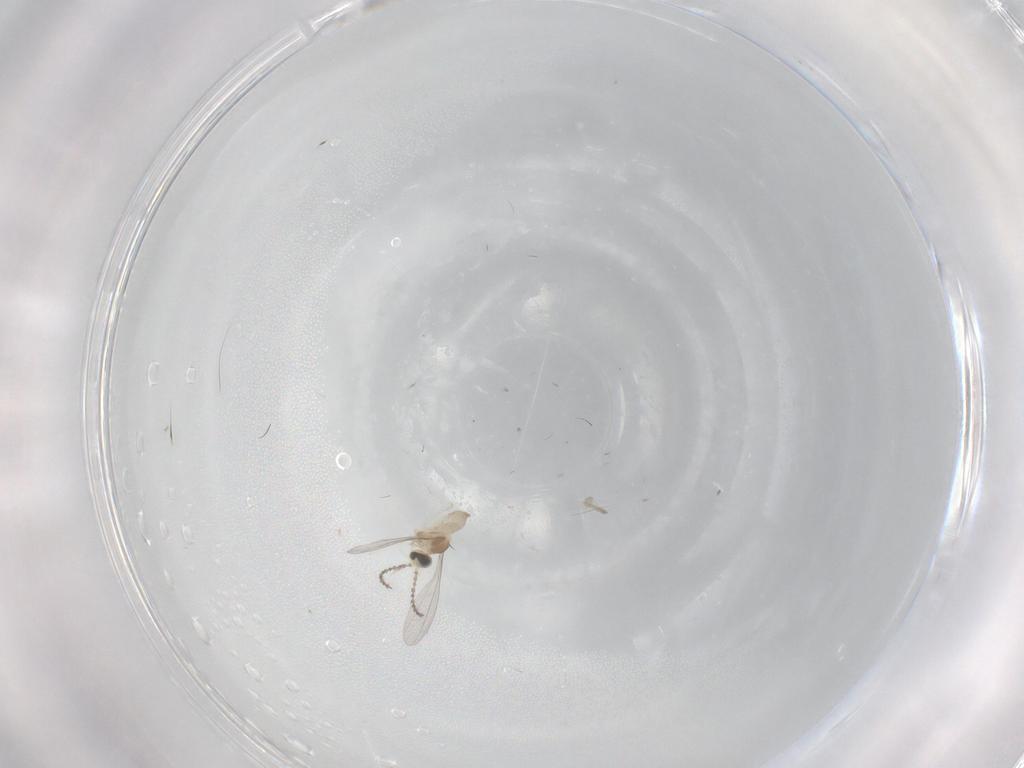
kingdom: Animalia
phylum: Arthropoda
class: Insecta
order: Diptera
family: Cecidomyiidae
